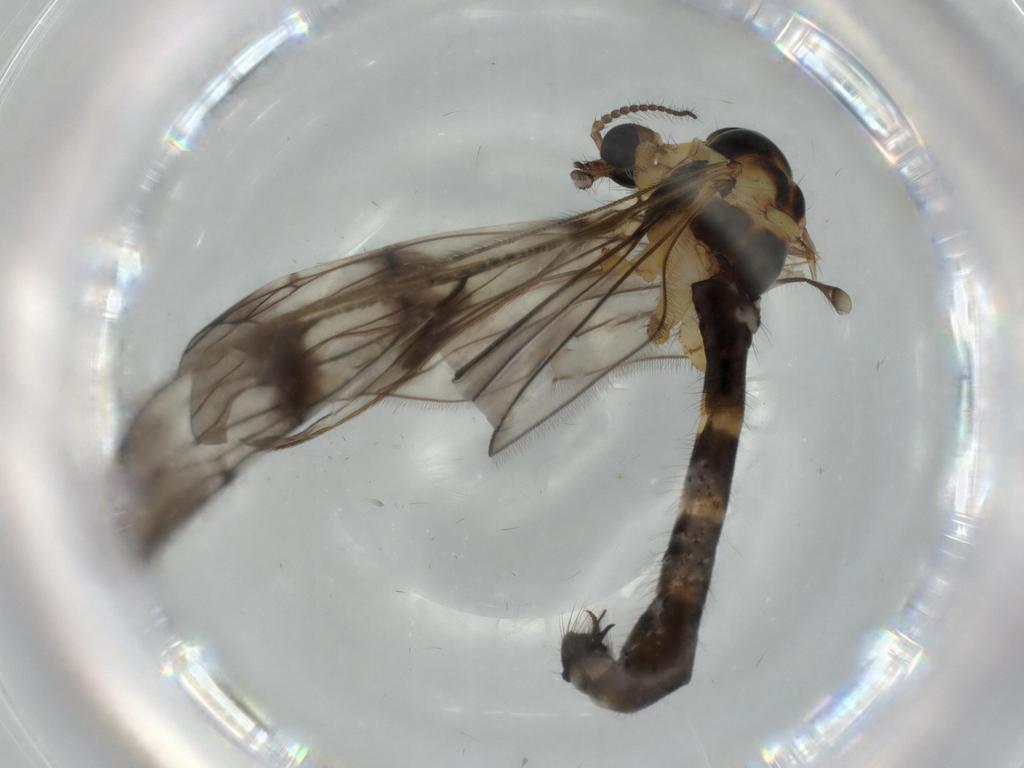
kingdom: Animalia
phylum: Arthropoda
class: Insecta
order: Diptera
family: Limoniidae
